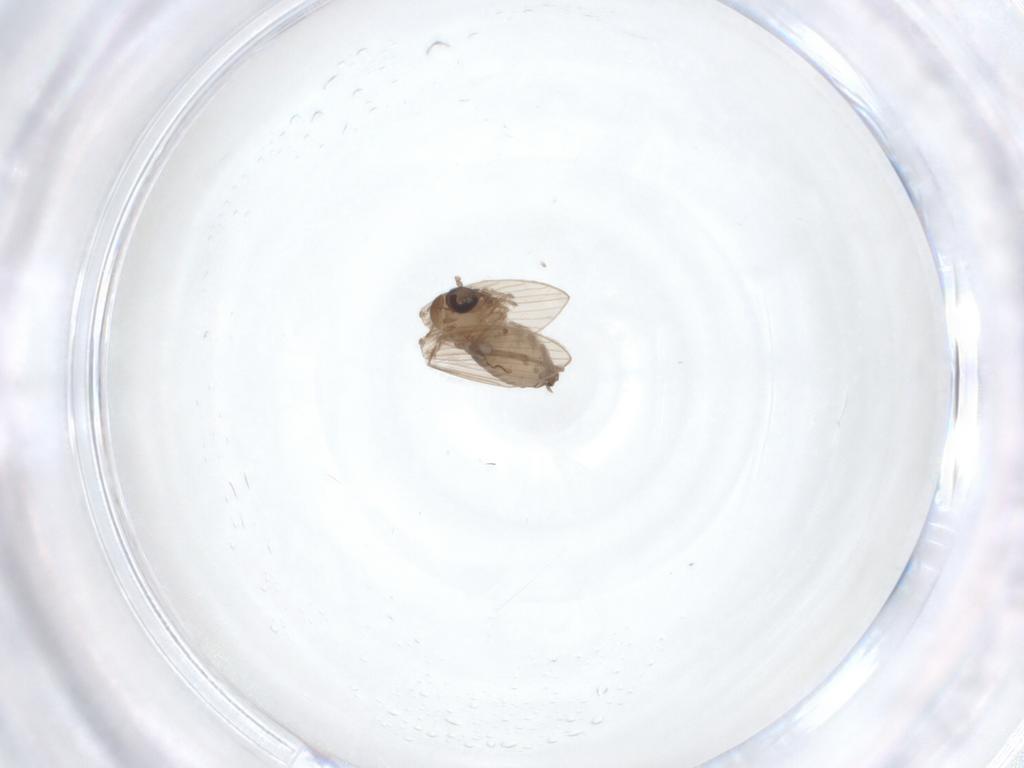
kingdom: Animalia
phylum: Arthropoda
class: Insecta
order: Diptera
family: Psychodidae
